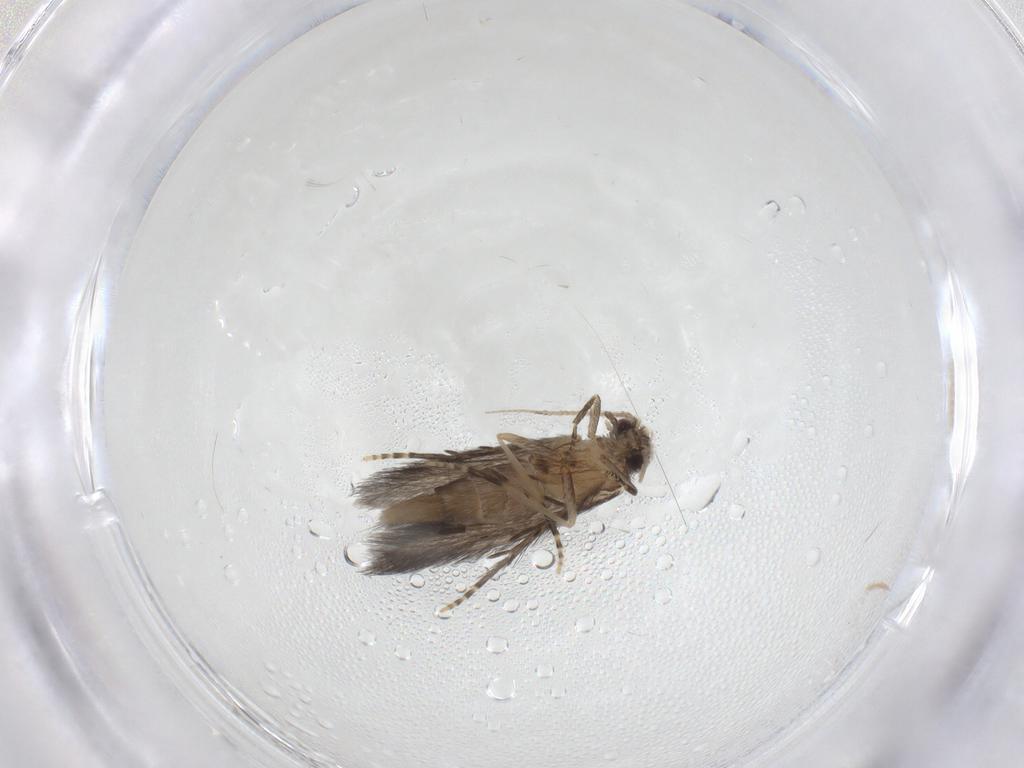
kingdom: Animalia
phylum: Arthropoda
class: Insecta
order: Trichoptera
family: Hydroptilidae
